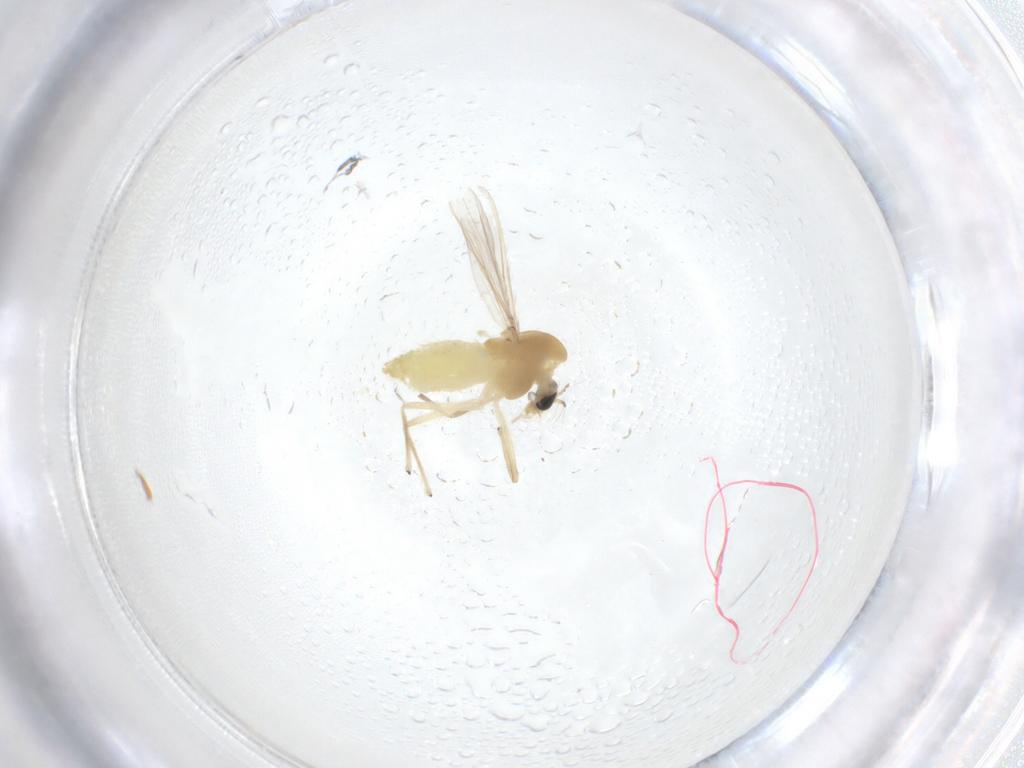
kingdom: Animalia
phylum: Arthropoda
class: Insecta
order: Diptera
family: Chironomidae
